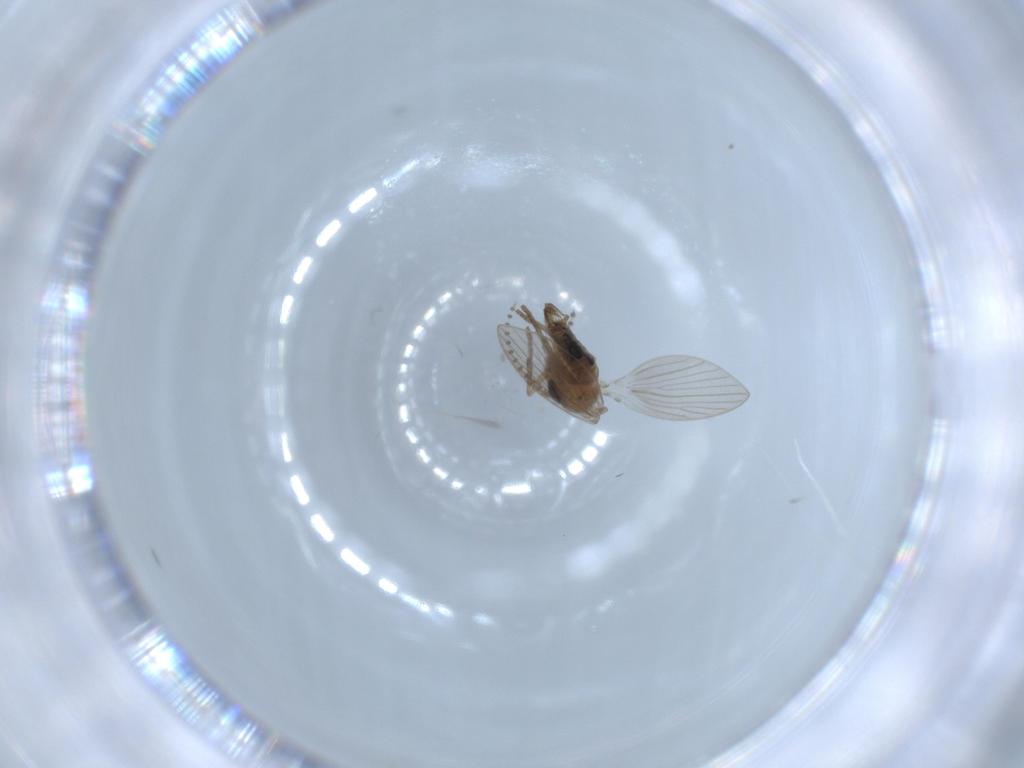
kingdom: Animalia
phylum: Arthropoda
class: Insecta
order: Diptera
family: Psychodidae
